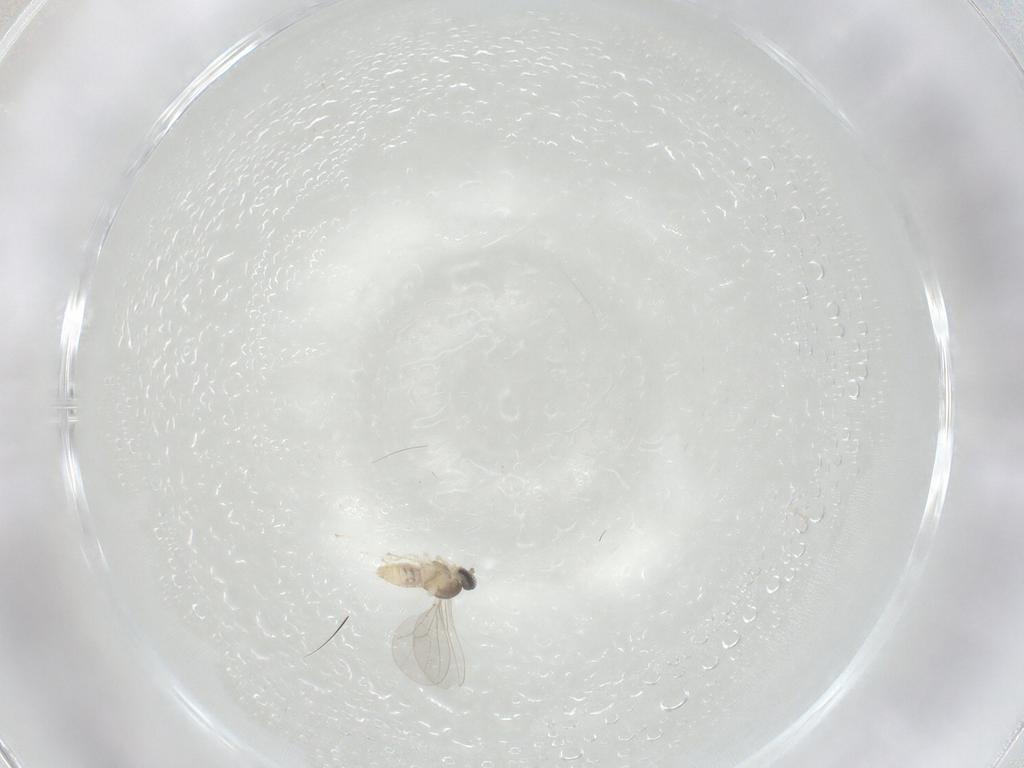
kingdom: Animalia
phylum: Arthropoda
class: Insecta
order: Diptera
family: Cecidomyiidae
